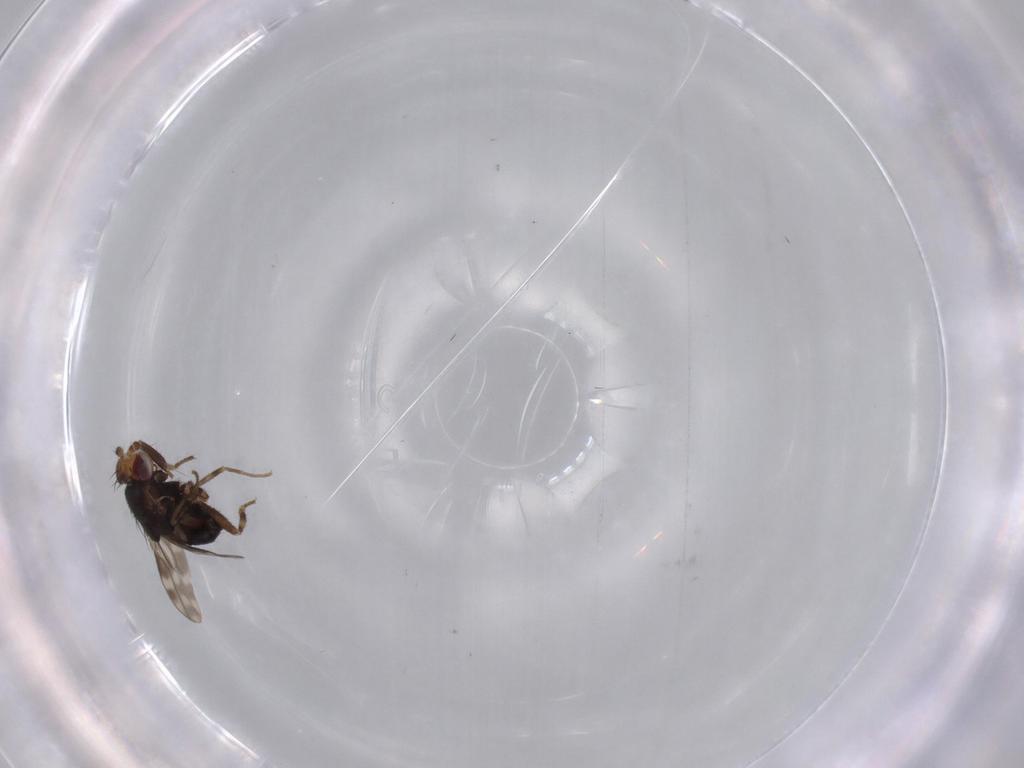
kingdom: Animalia
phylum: Arthropoda
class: Insecta
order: Diptera
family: Sphaeroceridae
